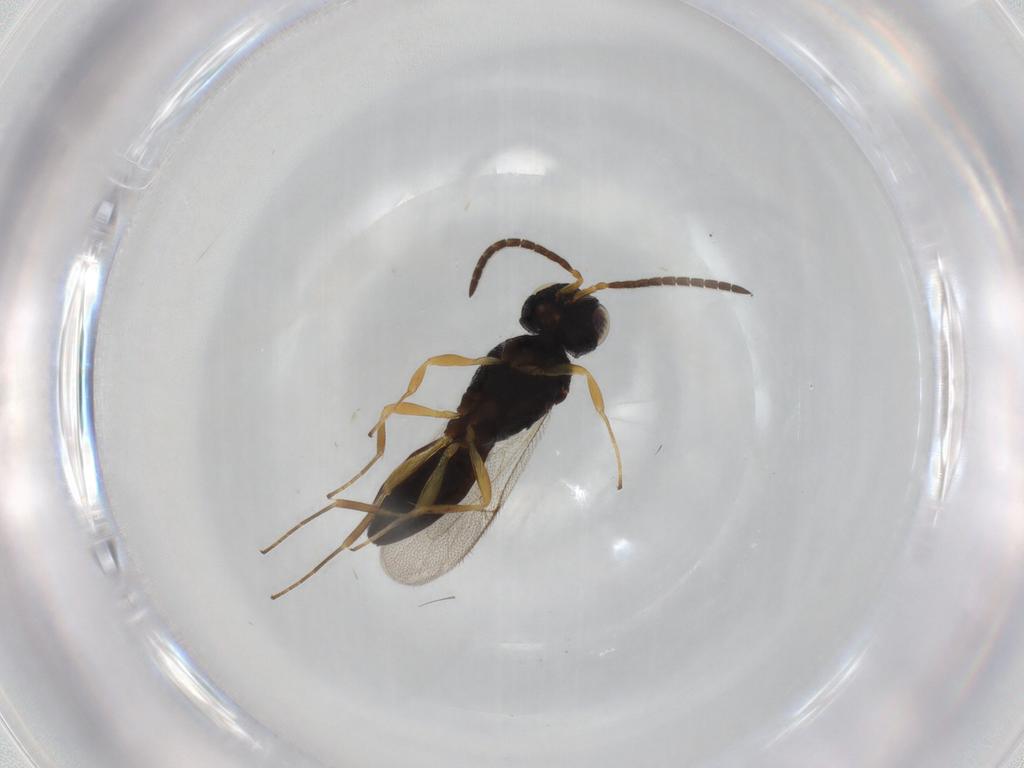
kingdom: Animalia
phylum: Arthropoda
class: Insecta
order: Hymenoptera
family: Scelionidae
